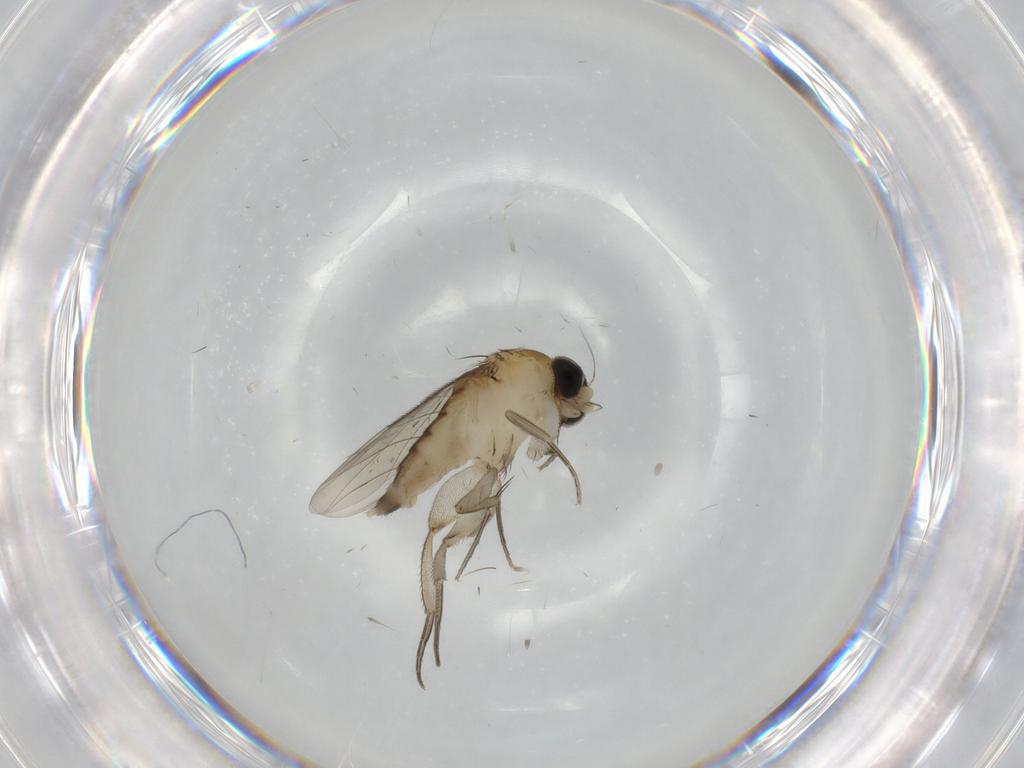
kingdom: Animalia
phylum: Arthropoda
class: Insecta
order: Diptera
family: Phoridae
